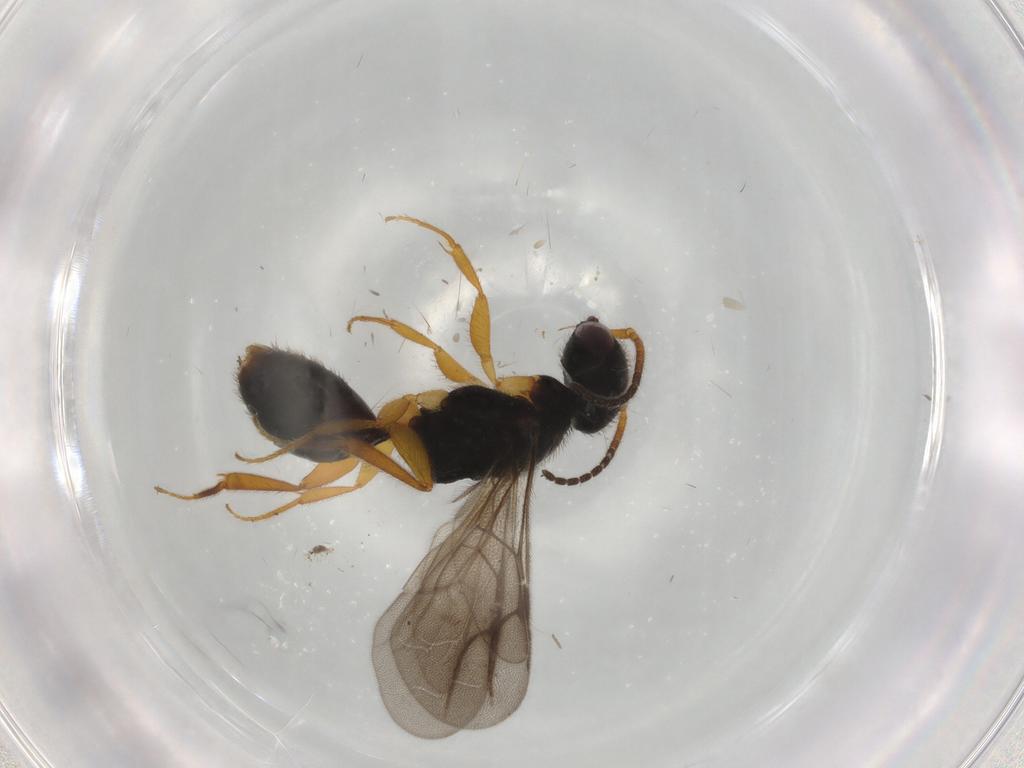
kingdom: Animalia
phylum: Arthropoda
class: Insecta
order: Hymenoptera
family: Bethylidae
